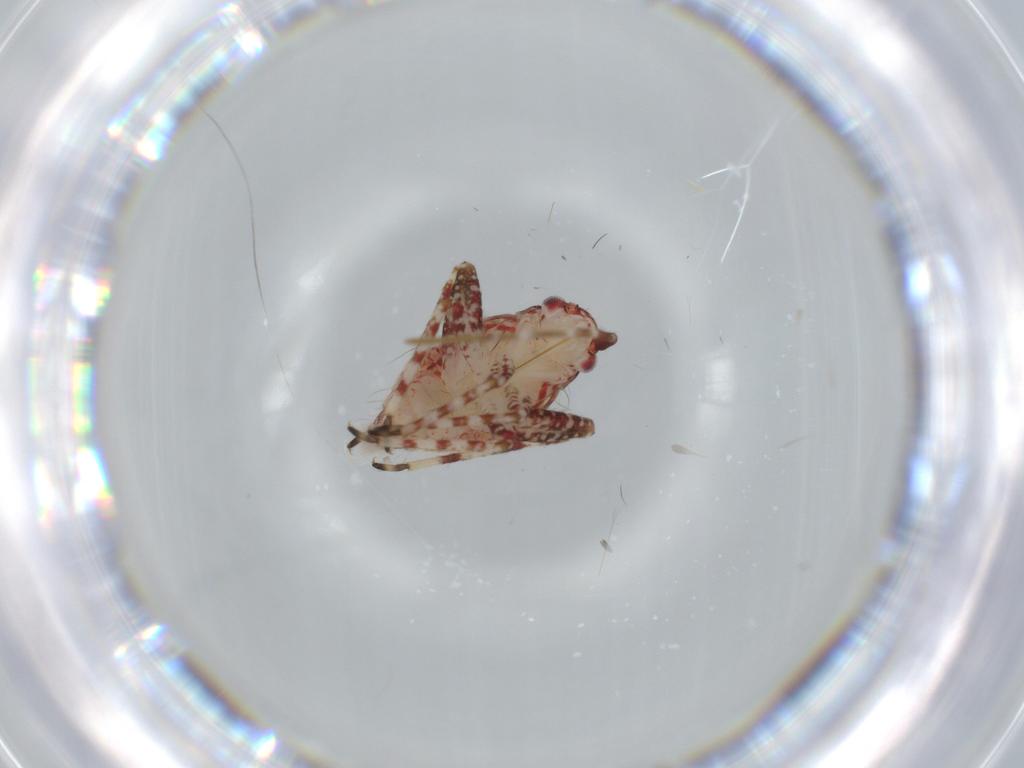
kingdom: Animalia
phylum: Arthropoda
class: Insecta
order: Hemiptera
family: Miridae
